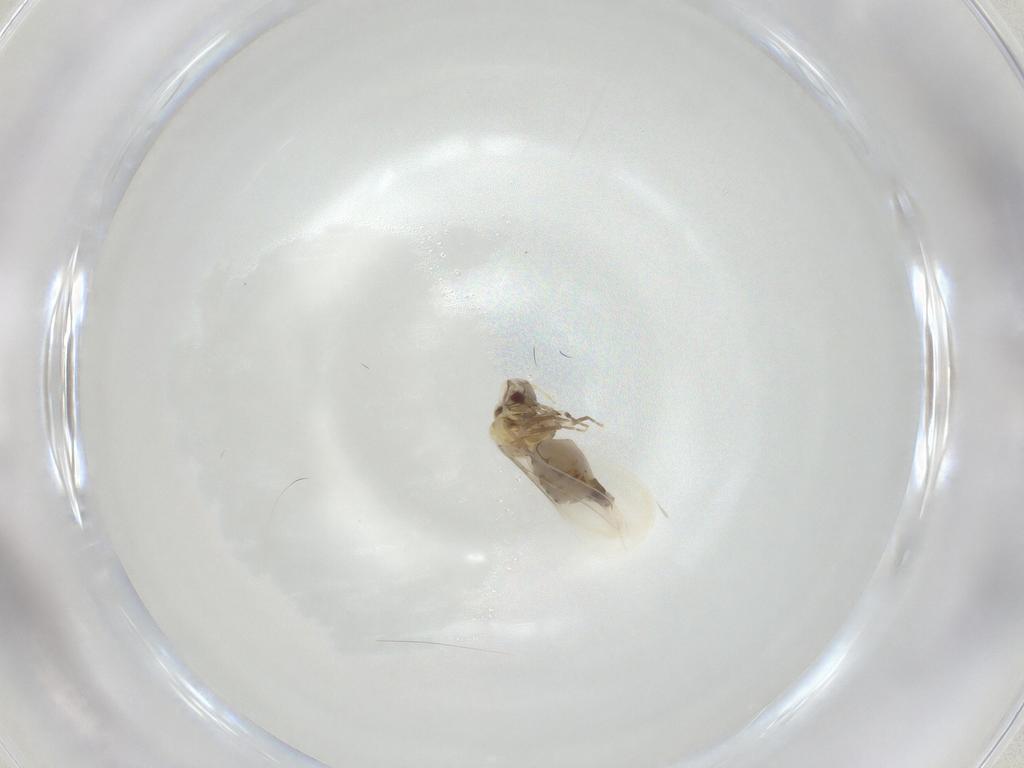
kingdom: Animalia
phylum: Arthropoda
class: Insecta
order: Hemiptera
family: Aleyrodidae
